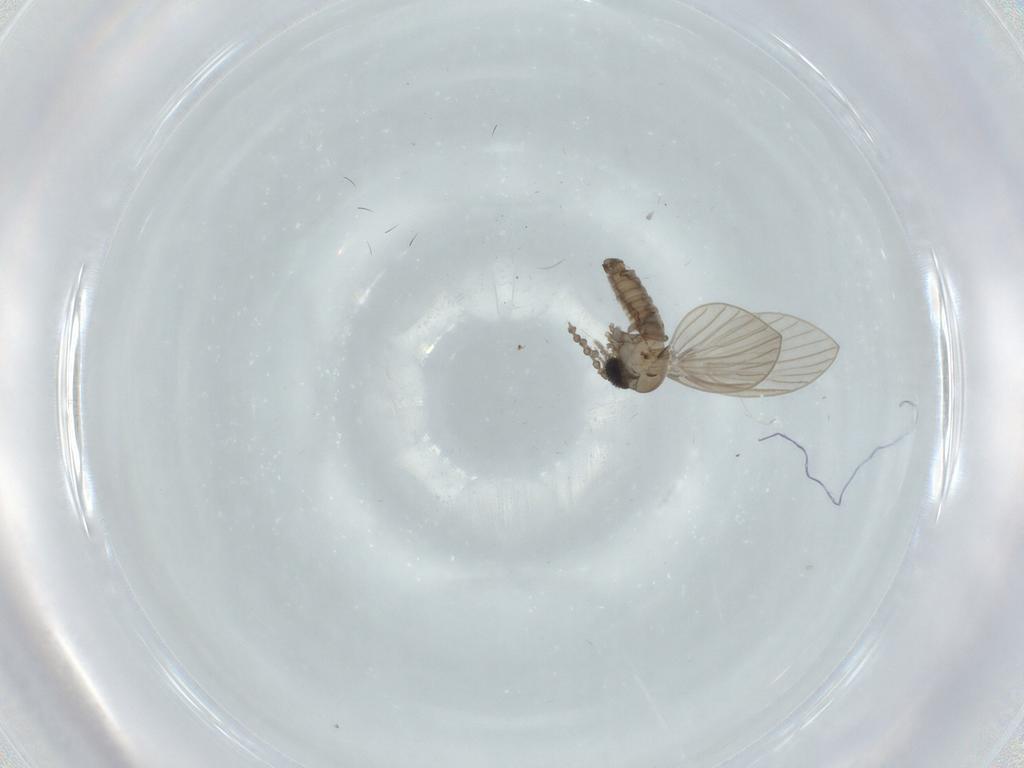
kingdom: Animalia
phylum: Arthropoda
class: Insecta
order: Diptera
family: Psychodidae
